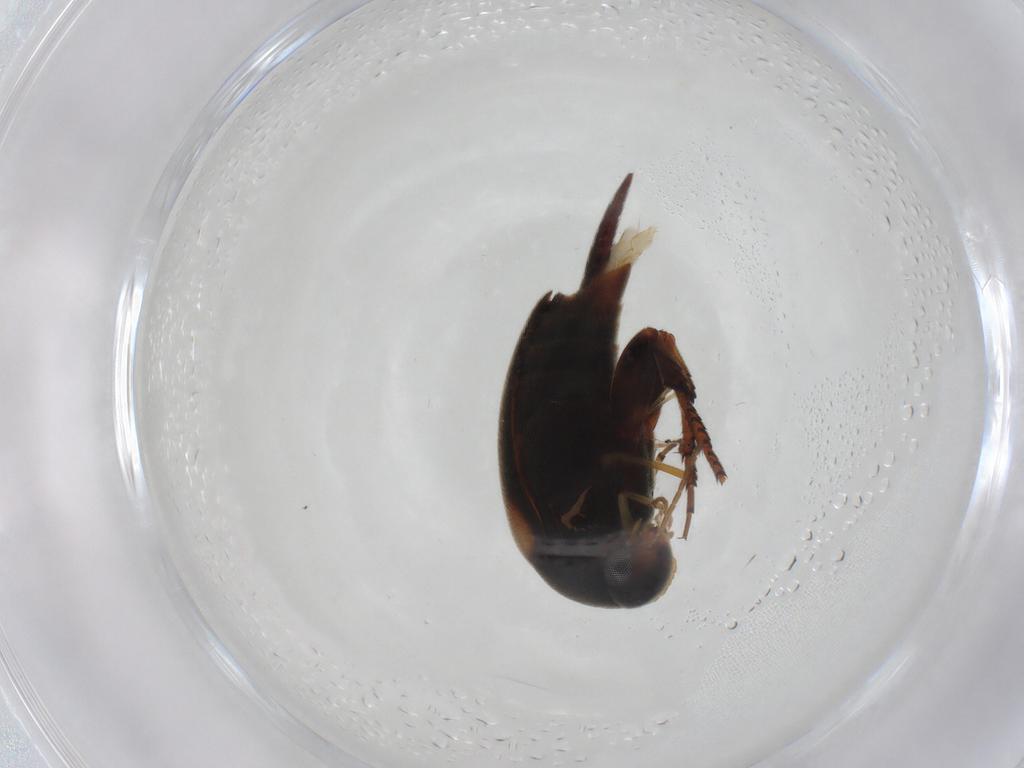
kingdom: Animalia
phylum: Arthropoda
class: Insecta
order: Coleoptera
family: Mordellidae
